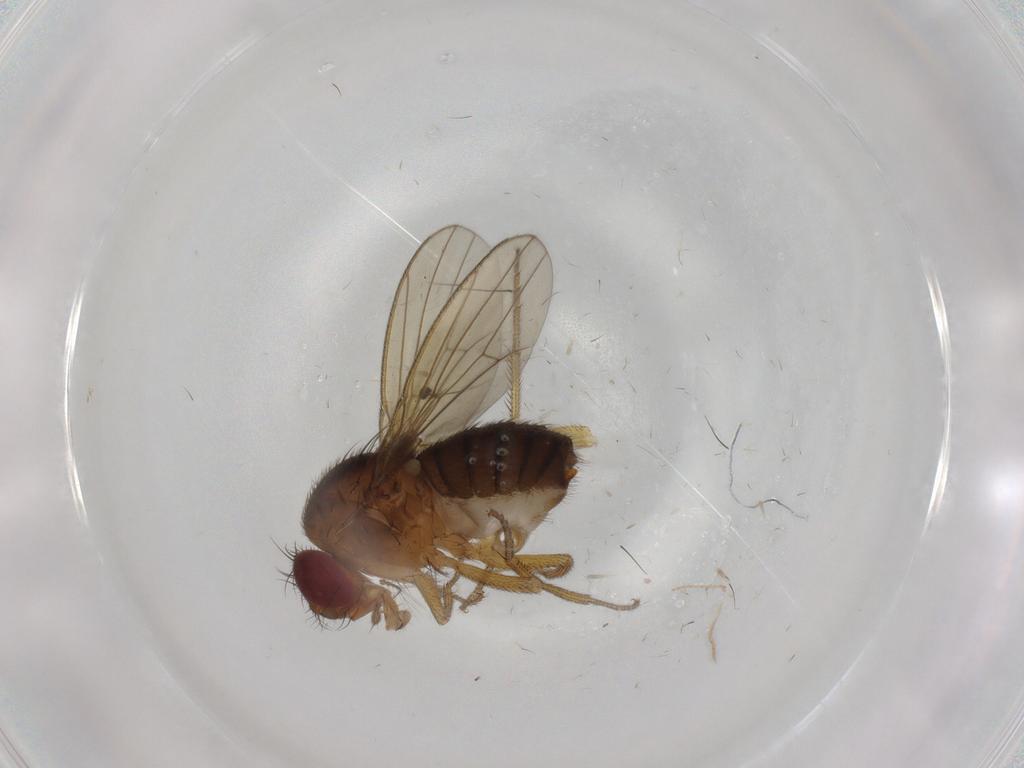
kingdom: Animalia
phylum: Arthropoda
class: Insecta
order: Diptera
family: Drosophilidae
